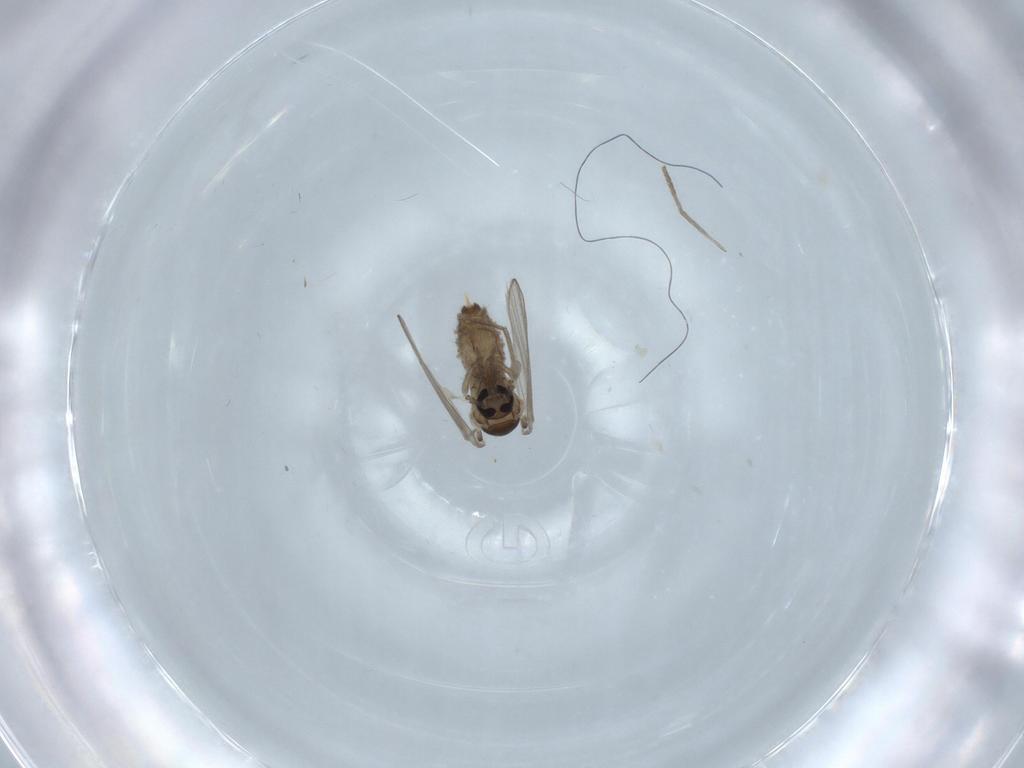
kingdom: Animalia
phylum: Arthropoda
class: Insecta
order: Diptera
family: Psychodidae
